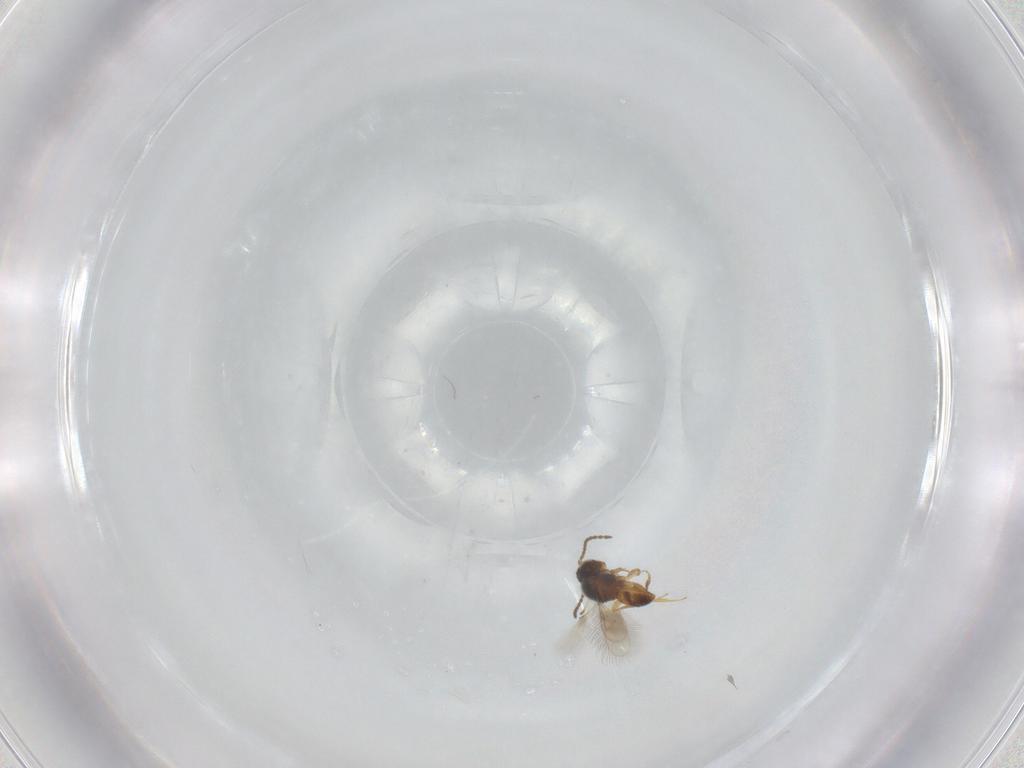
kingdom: Animalia
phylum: Arthropoda
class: Insecta
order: Hymenoptera
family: Scelionidae
